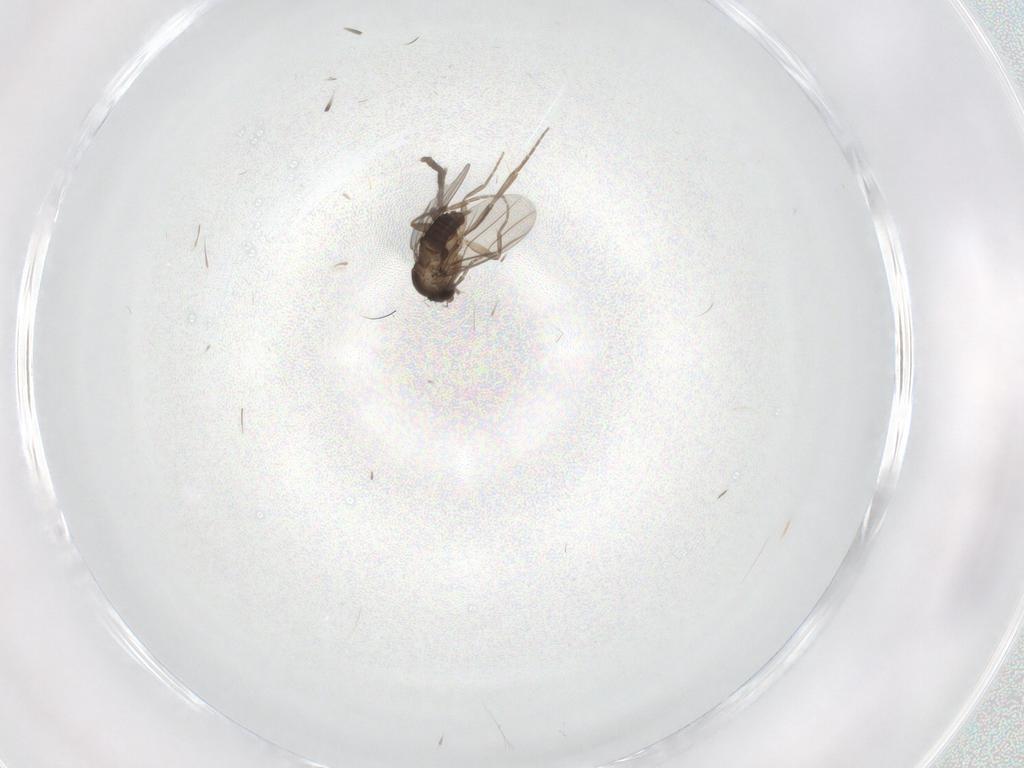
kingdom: Animalia
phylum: Arthropoda
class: Insecta
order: Diptera
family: Phoridae
